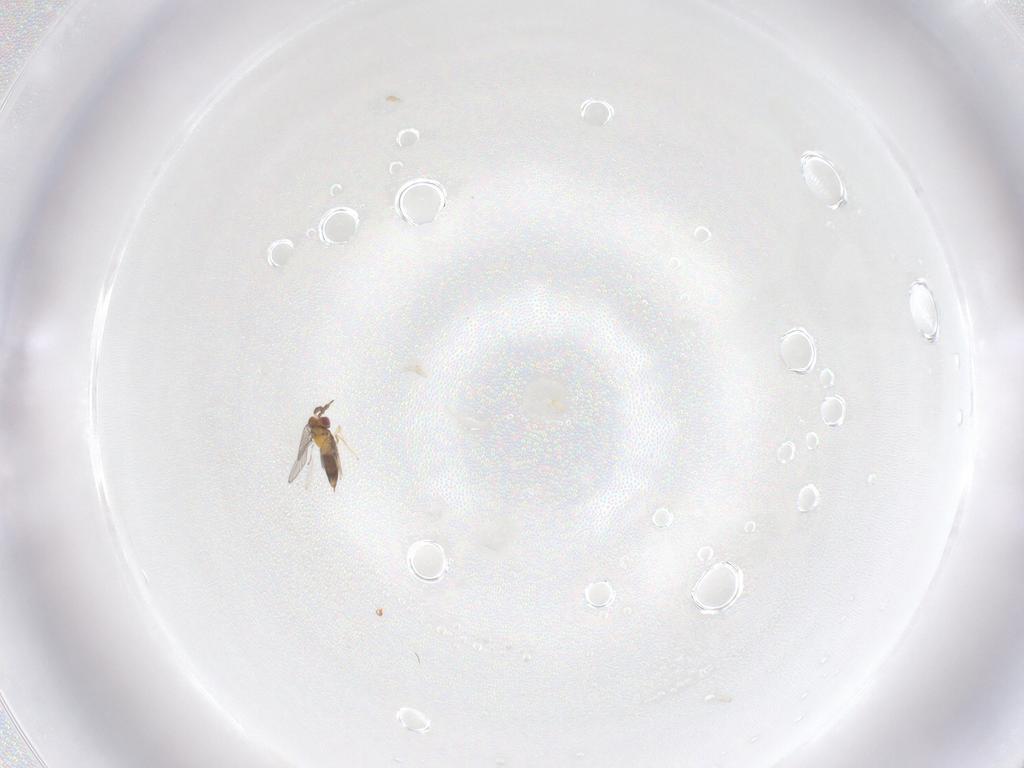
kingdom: Animalia
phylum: Arthropoda
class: Insecta
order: Hymenoptera
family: Trichogrammatidae
